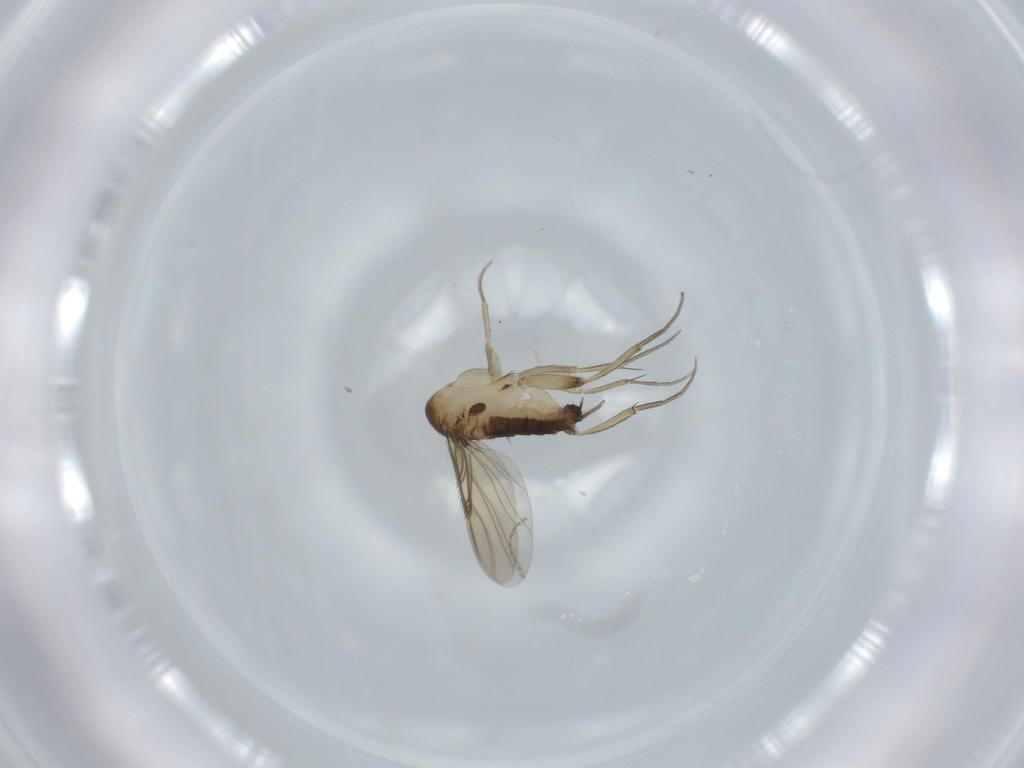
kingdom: Animalia
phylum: Arthropoda
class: Insecta
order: Diptera
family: Phoridae
